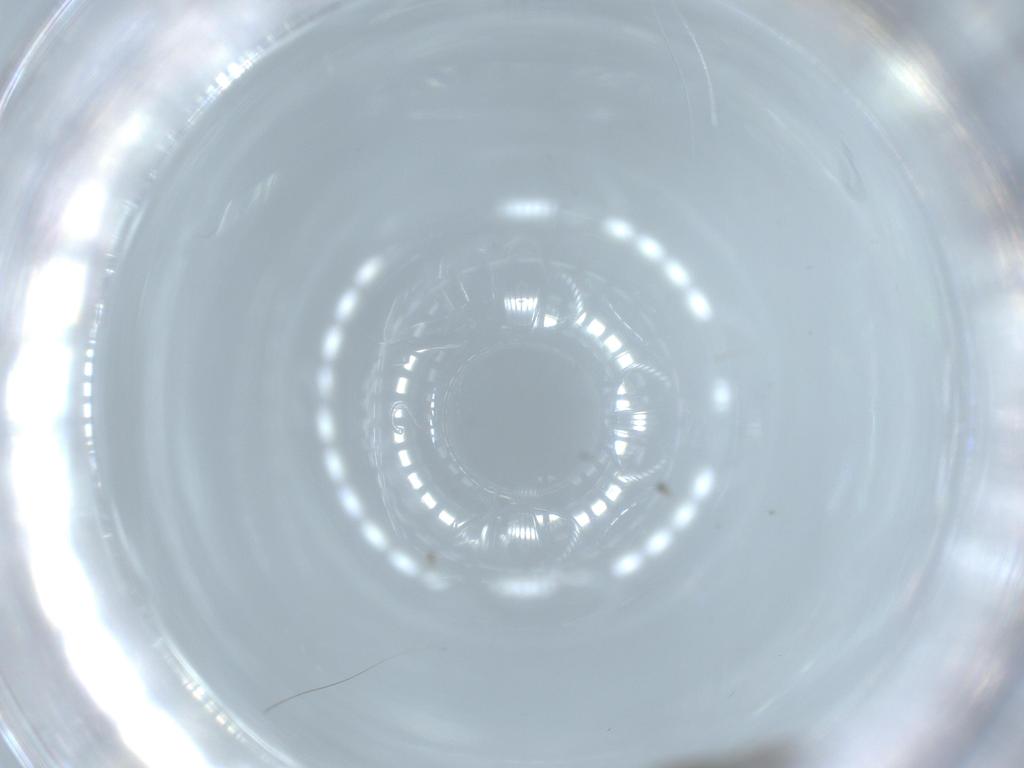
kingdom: Animalia
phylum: Arthropoda
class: Insecta
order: Diptera
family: Chironomidae
